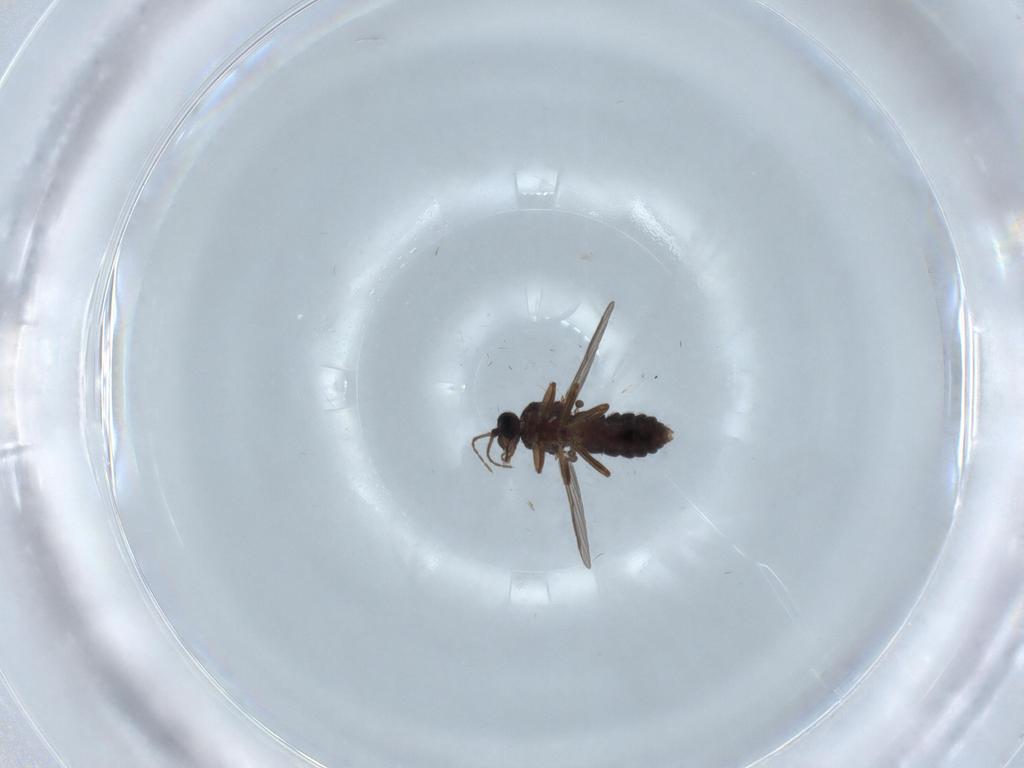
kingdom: Animalia
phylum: Arthropoda
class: Insecta
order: Diptera
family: Ceratopogonidae
